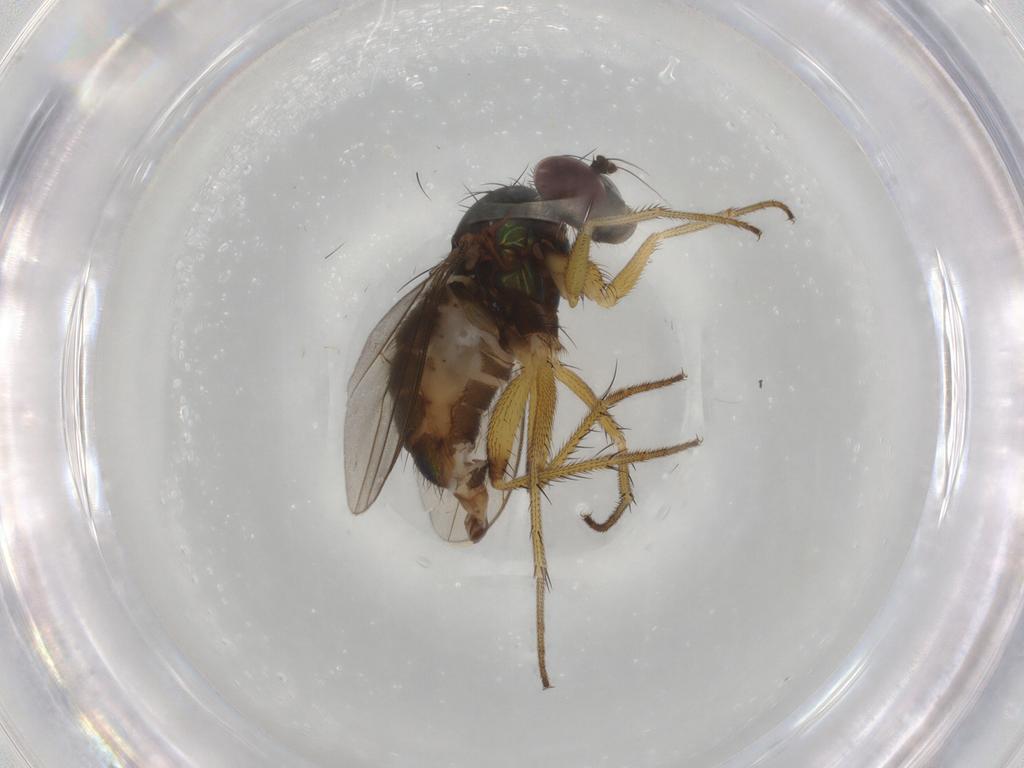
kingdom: Animalia
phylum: Arthropoda
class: Insecta
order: Diptera
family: Dolichopodidae
